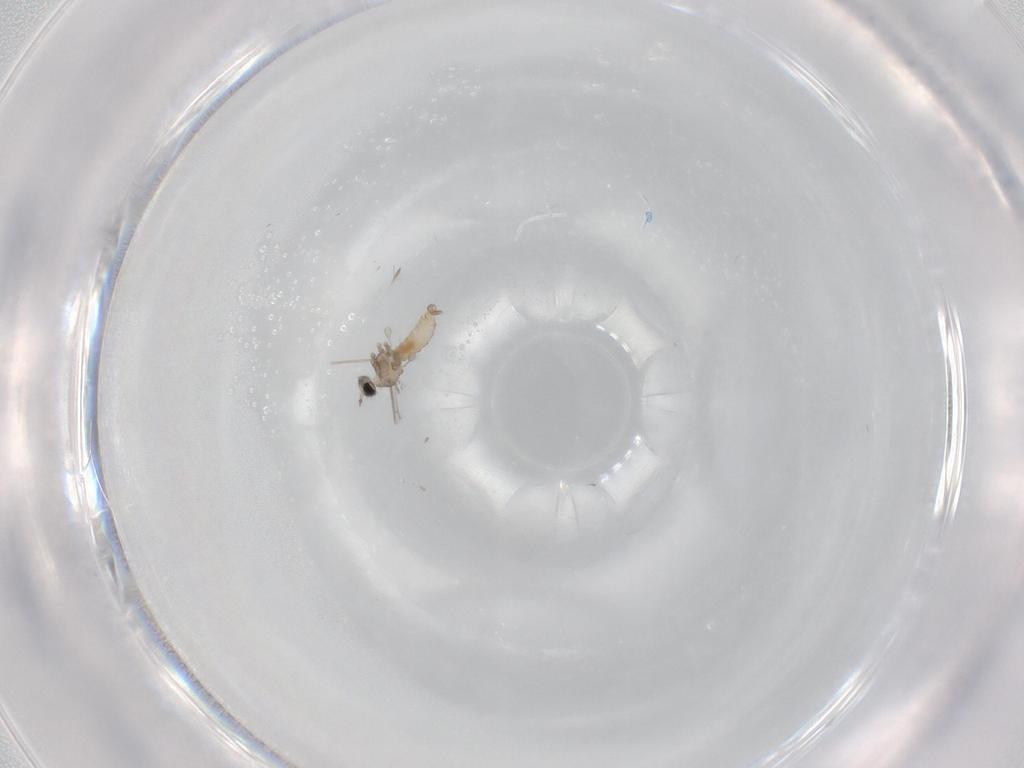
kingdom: Animalia
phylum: Arthropoda
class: Insecta
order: Diptera
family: Cecidomyiidae
